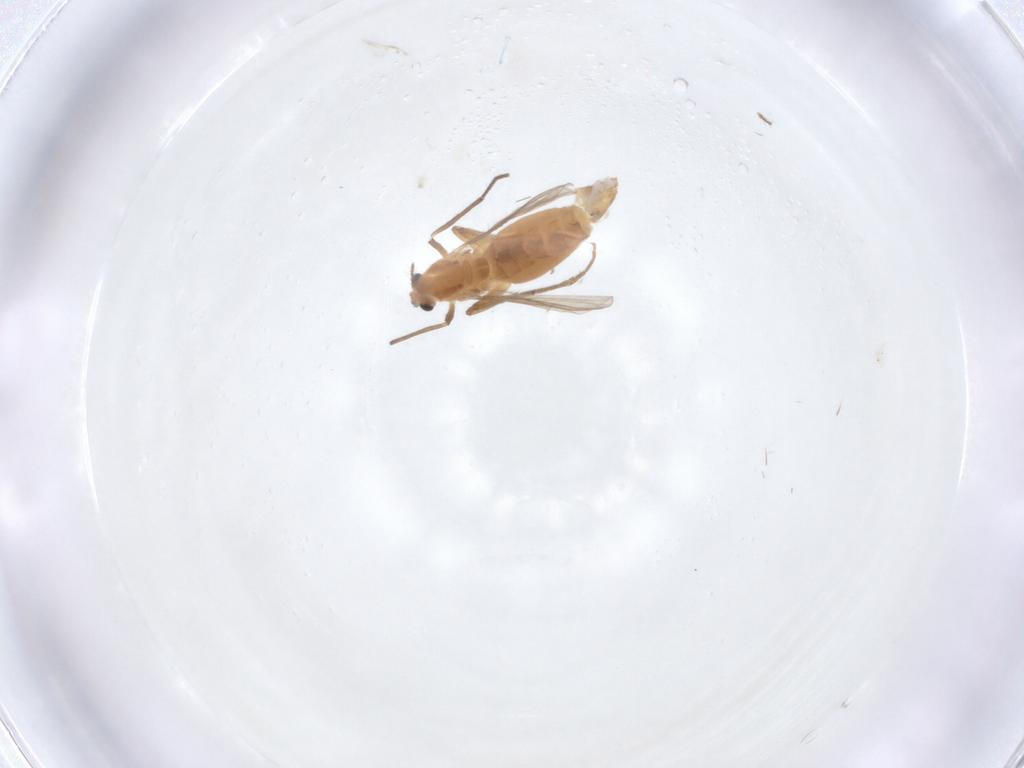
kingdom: Animalia
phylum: Arthropoda
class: Insecta
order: Diptera
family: Chironomidae
